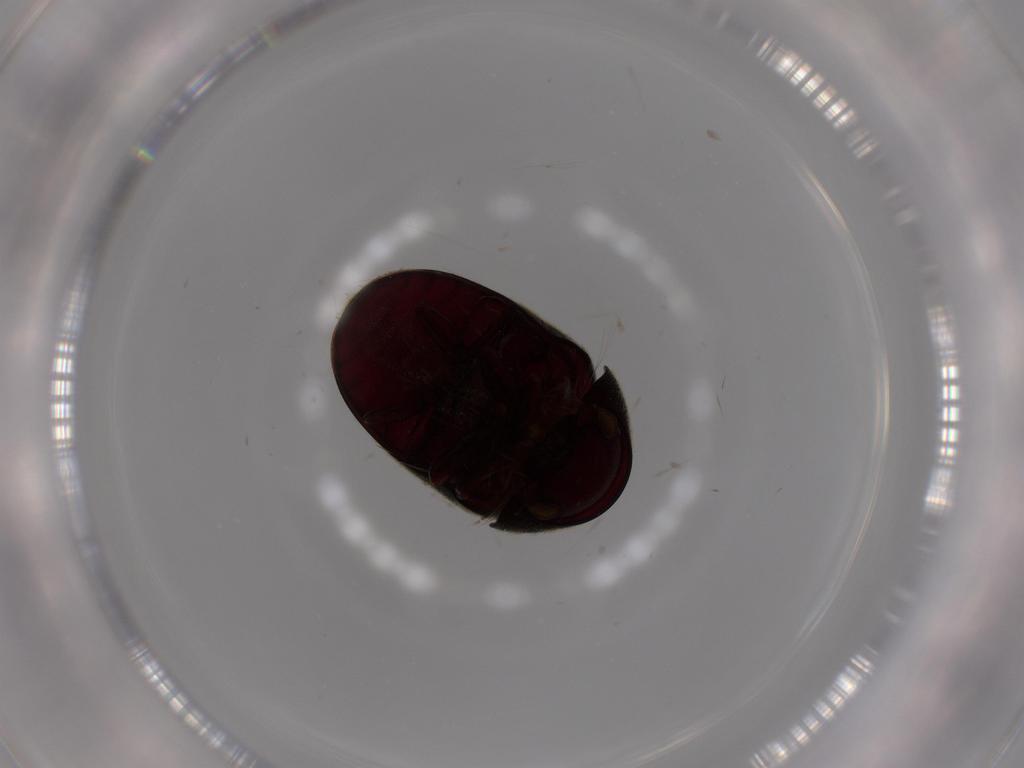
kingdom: Animalia
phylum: Arthropoda
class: Insecta
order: Coleoptera
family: Ptinidae
